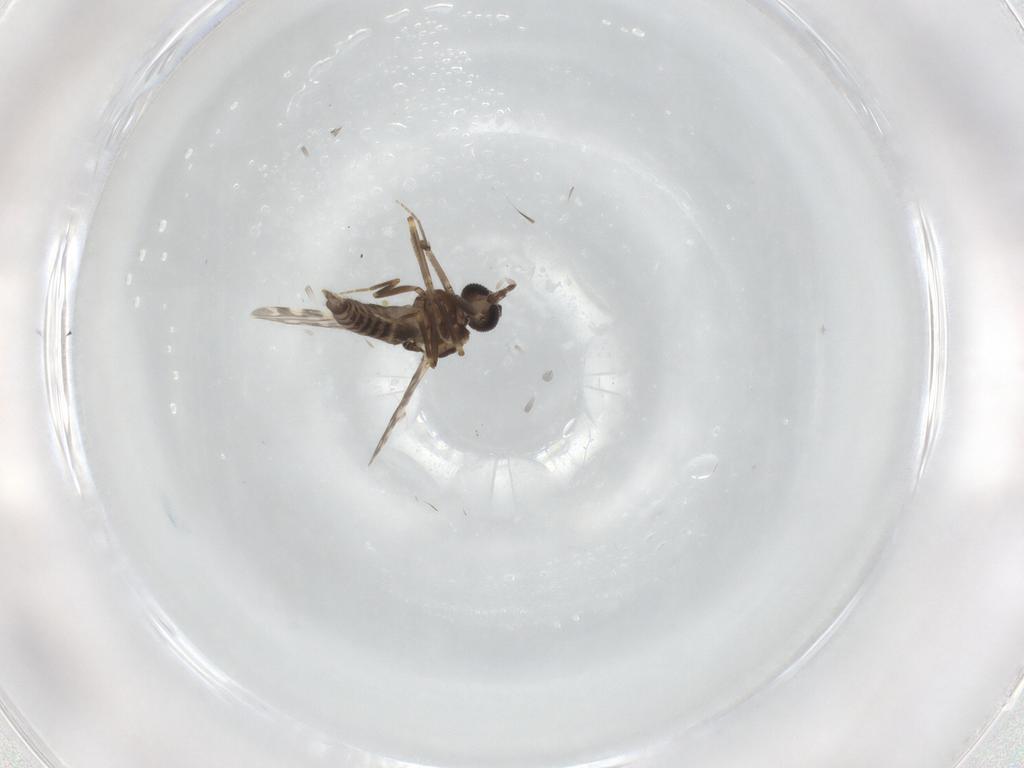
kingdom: Animalia
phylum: Arthropoda
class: Insecta
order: Diptera
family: Ceratopogonidae
